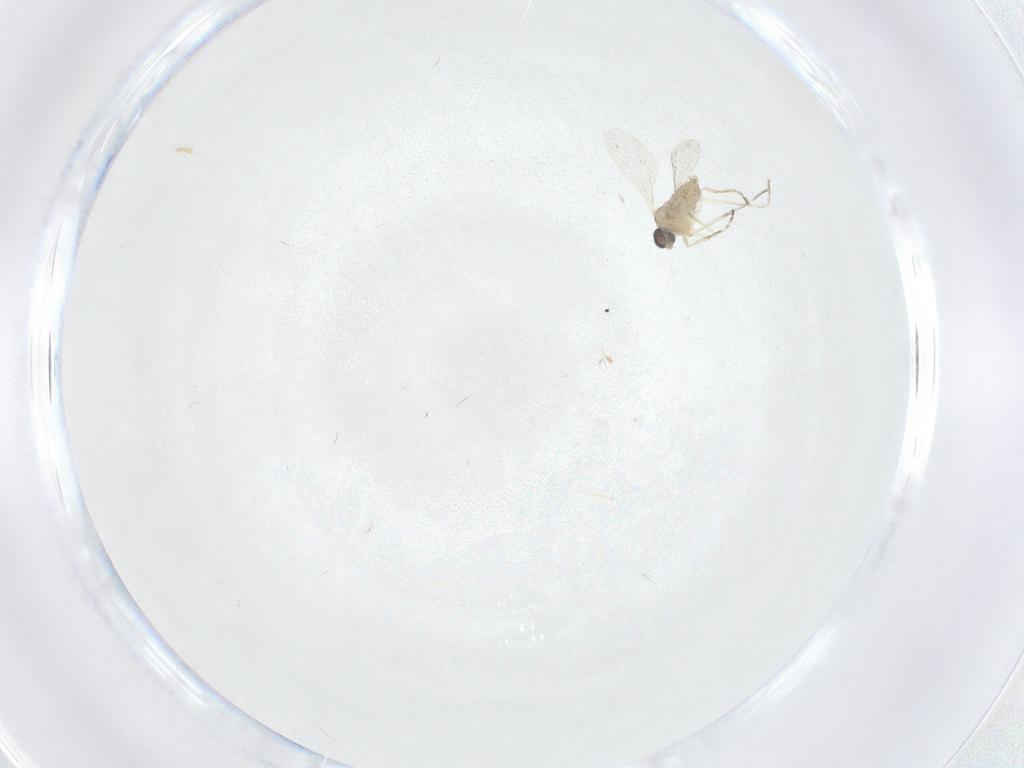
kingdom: Animalia
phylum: Arthropoda
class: Insecta
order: Diptera
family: Cecidomyiidae
